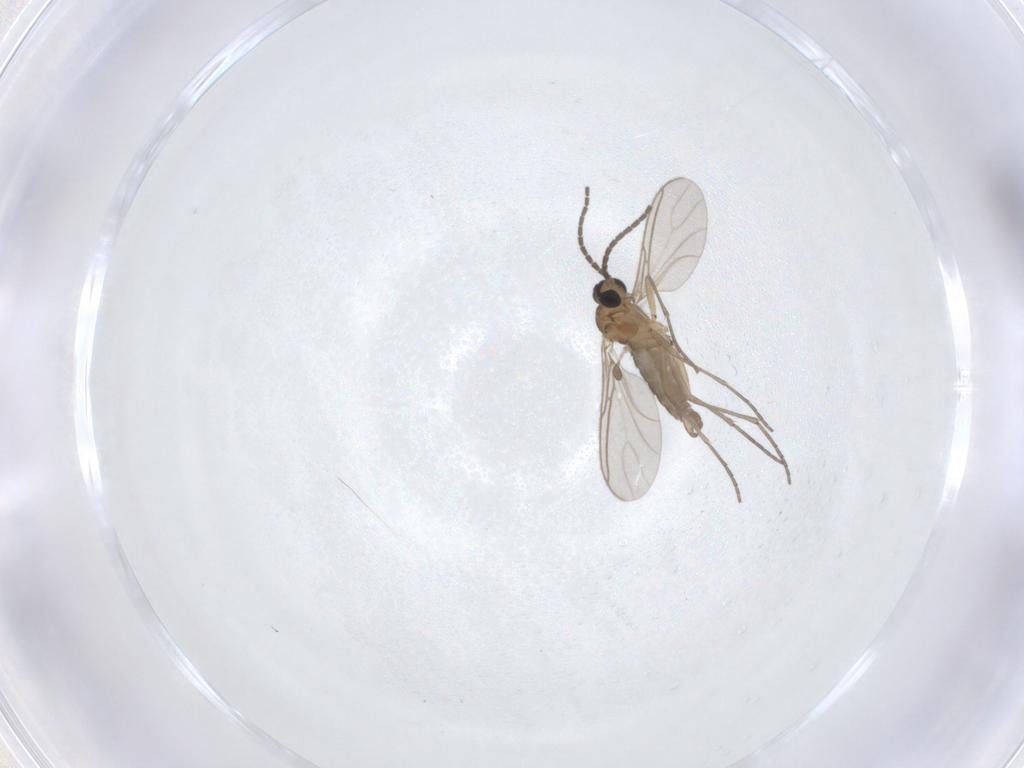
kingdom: Animalia
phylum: Arthropoda
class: Insecta
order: Diptera
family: Sciaridae
